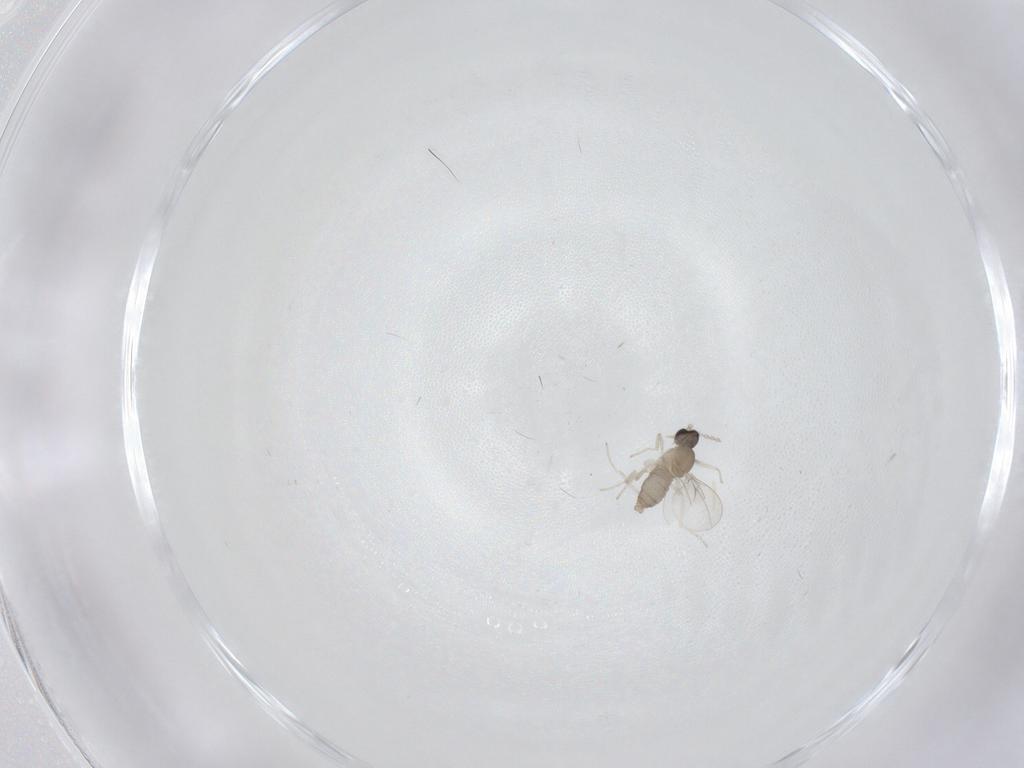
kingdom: Animalia
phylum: Arthropoda
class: Insecta
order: Diptera
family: Cecidomyiidae
